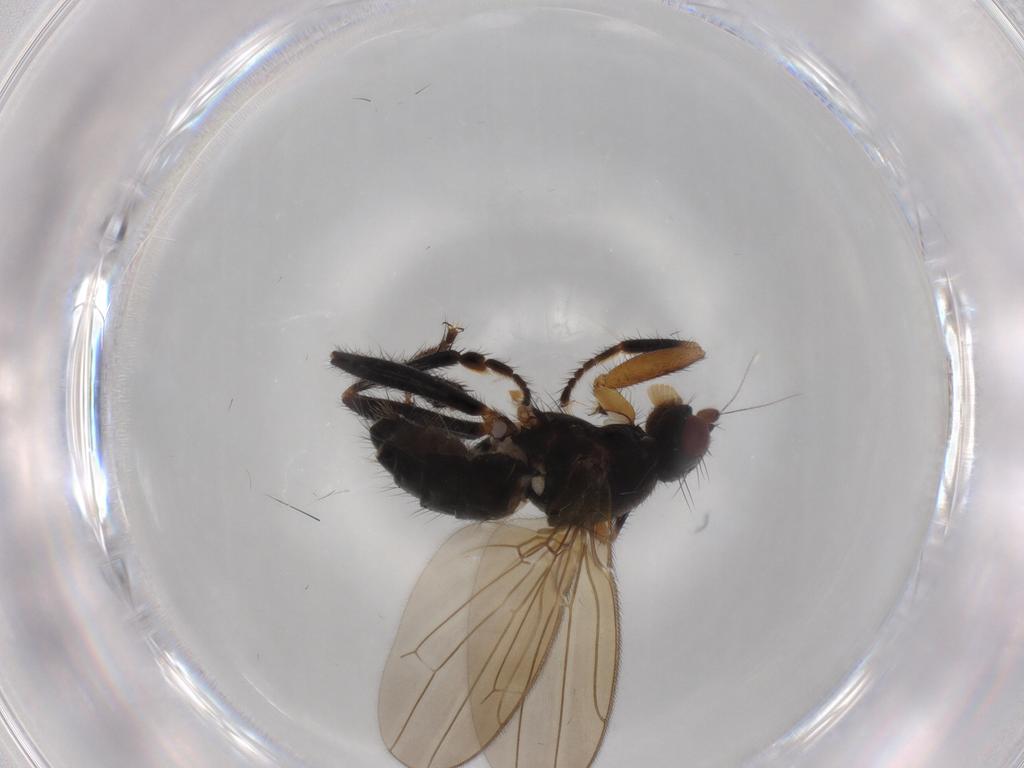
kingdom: Animalia
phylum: Arthropoda
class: Insecta
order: Diptera
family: Sphaeroceridae
